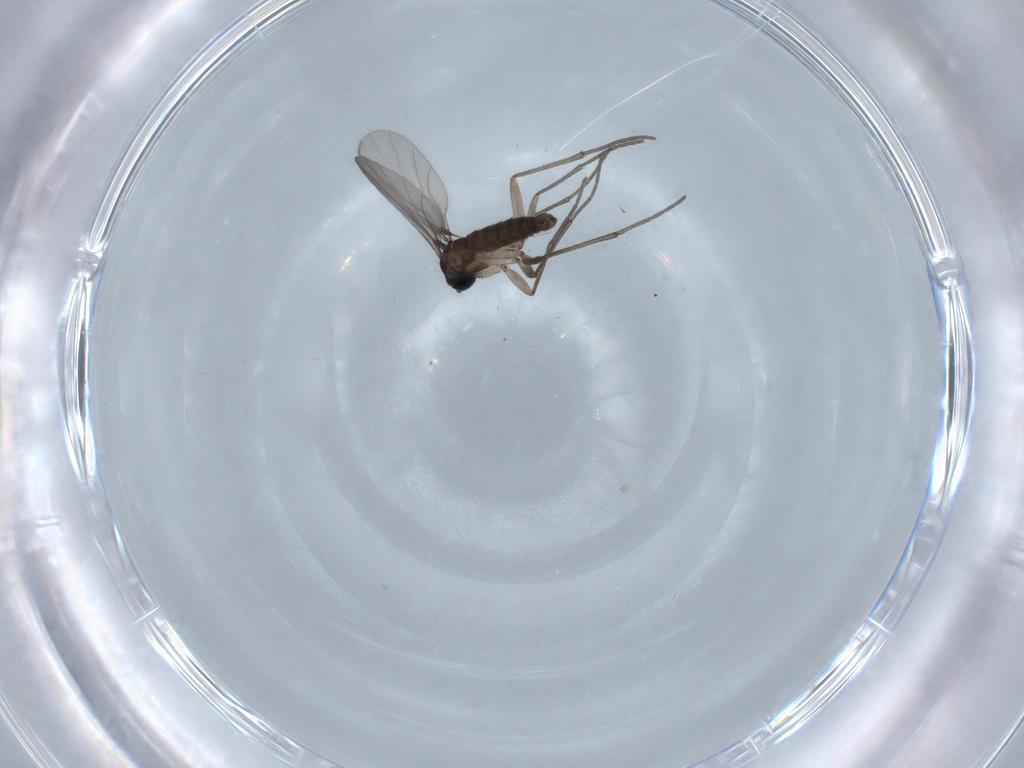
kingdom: Animalia
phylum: Arthropoda
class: Insecta
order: Diptera
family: Sciaridae
